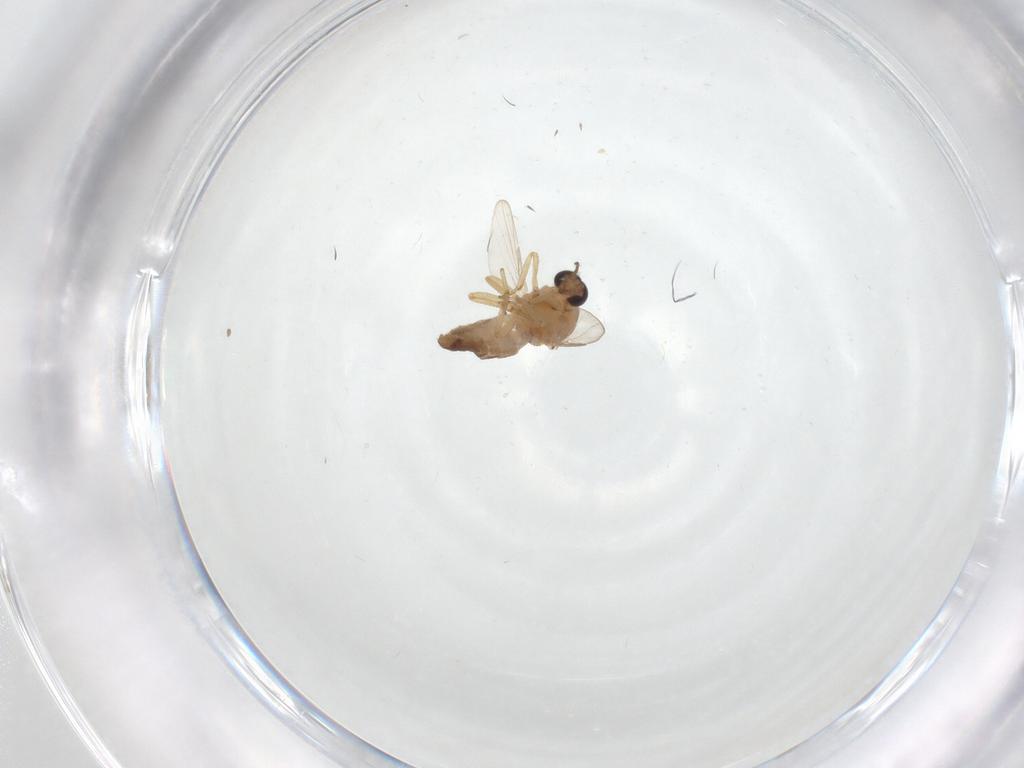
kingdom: Animalia
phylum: Arthropoda
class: Insecta
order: Diptera
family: Ceratopogonidae
